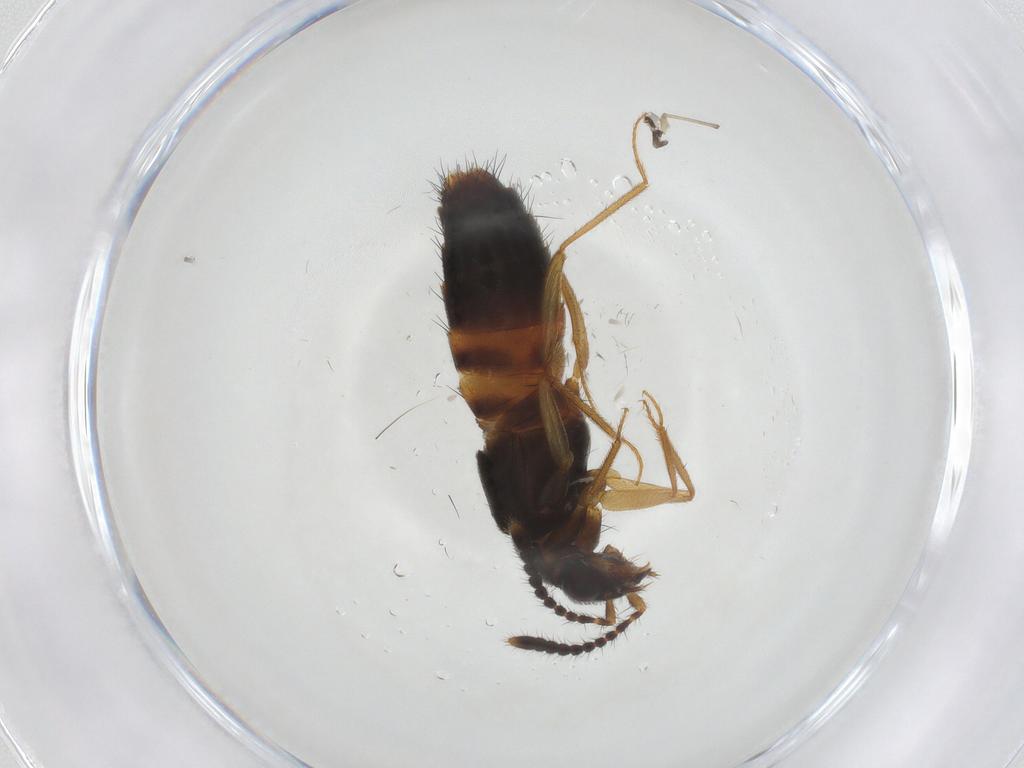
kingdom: Animalia
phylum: Arthropoda
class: Insecta
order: Coleoptera
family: Staphylinidae
